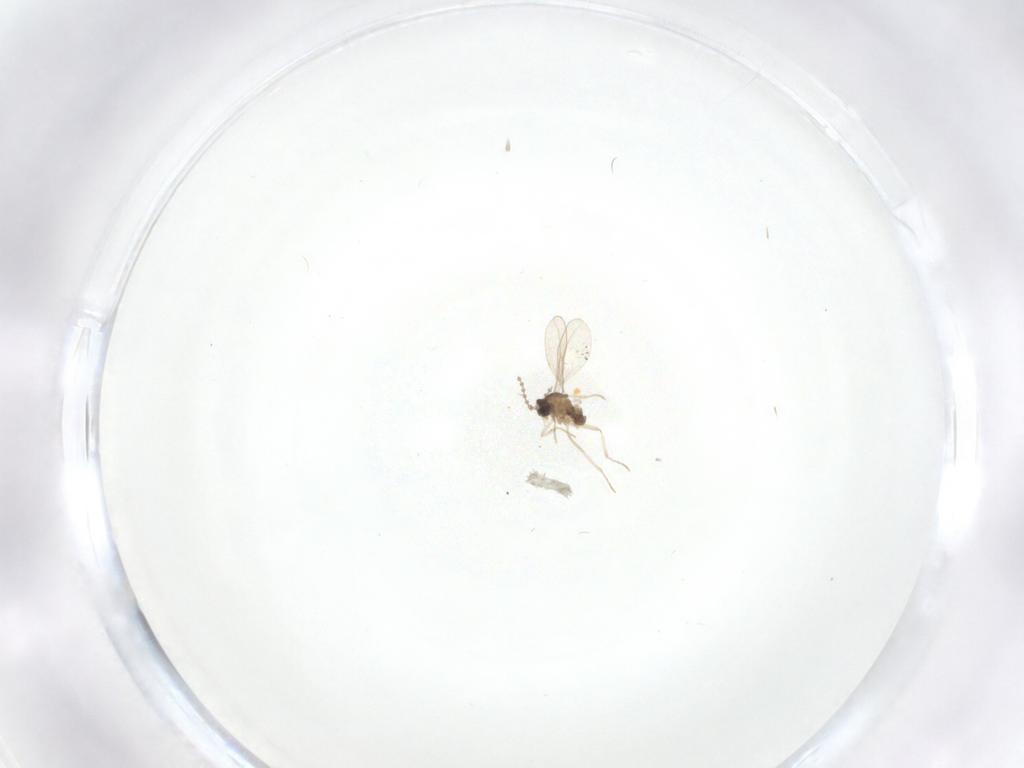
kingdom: Animalia
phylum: Arthropoda
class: Insecta
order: Diptera
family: Cecidomyiidae
